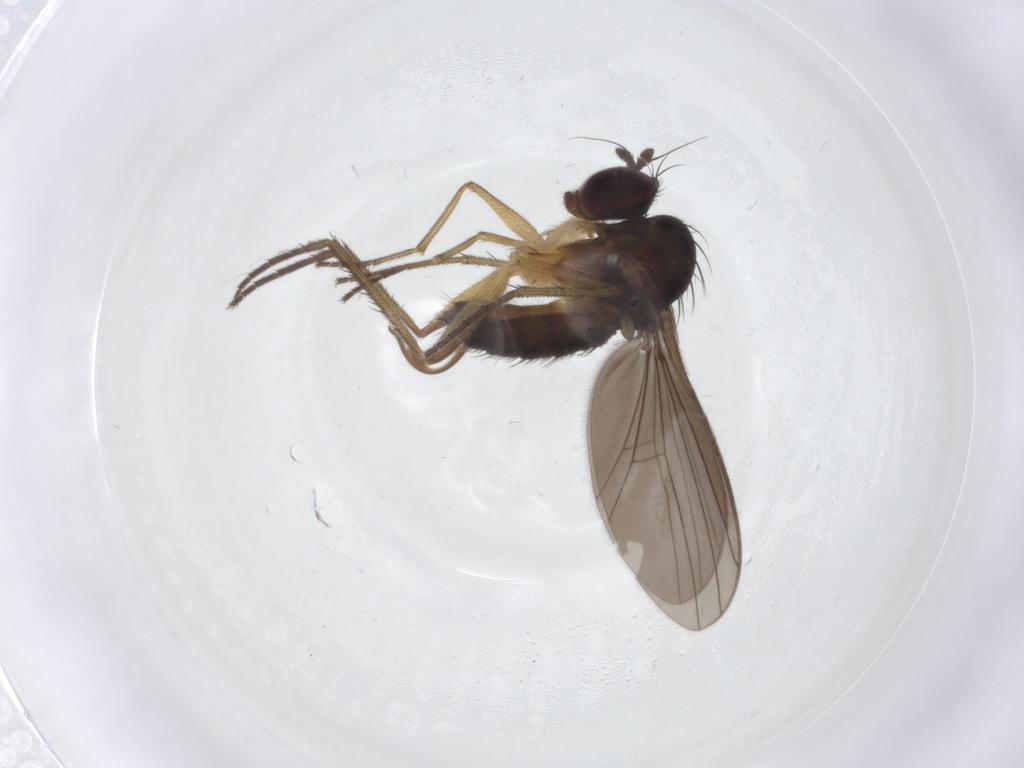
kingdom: Animalia
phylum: Arthropoda
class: Insecta
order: Diptera
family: Dolichopodidae
